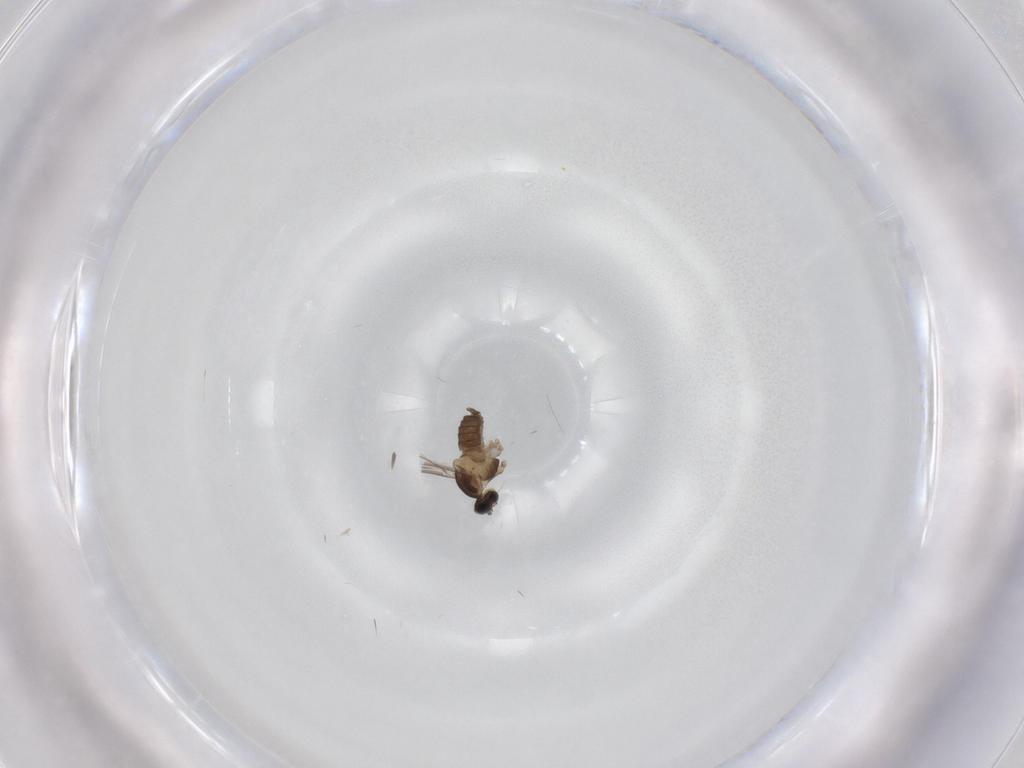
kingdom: Animalia
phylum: Arthropoda
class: Insecta
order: Diptera
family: Cecidomyiidae
